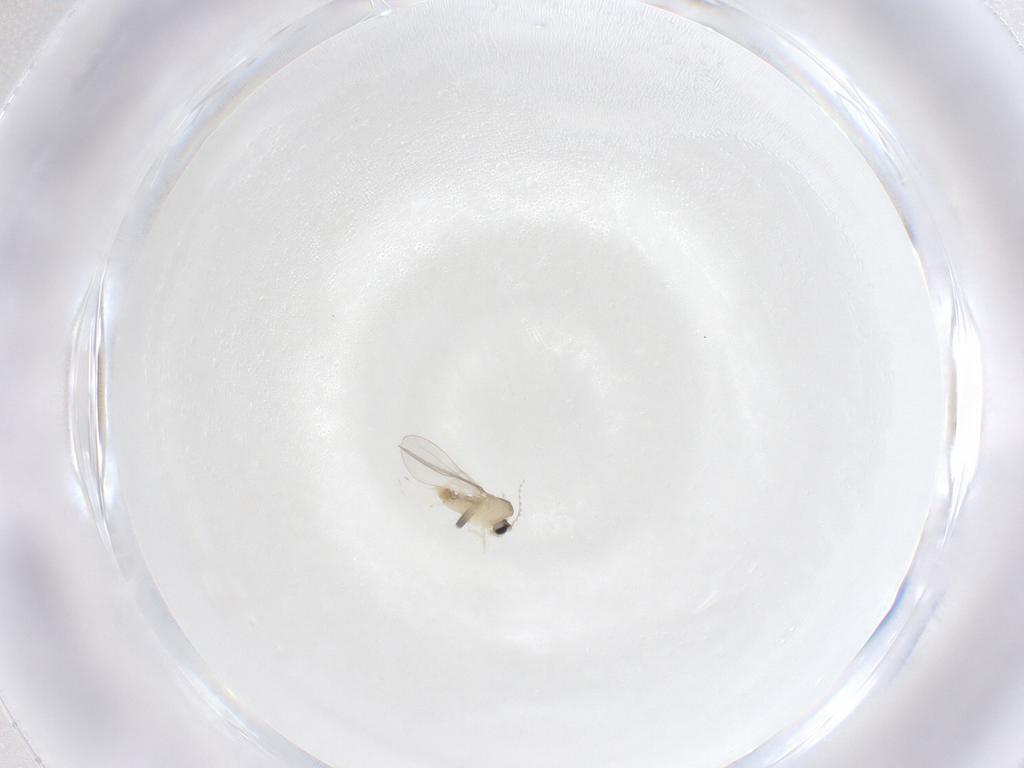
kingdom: Animalia
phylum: Arthropoda
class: Insecta
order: Diptera
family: Cecidomyiidae
